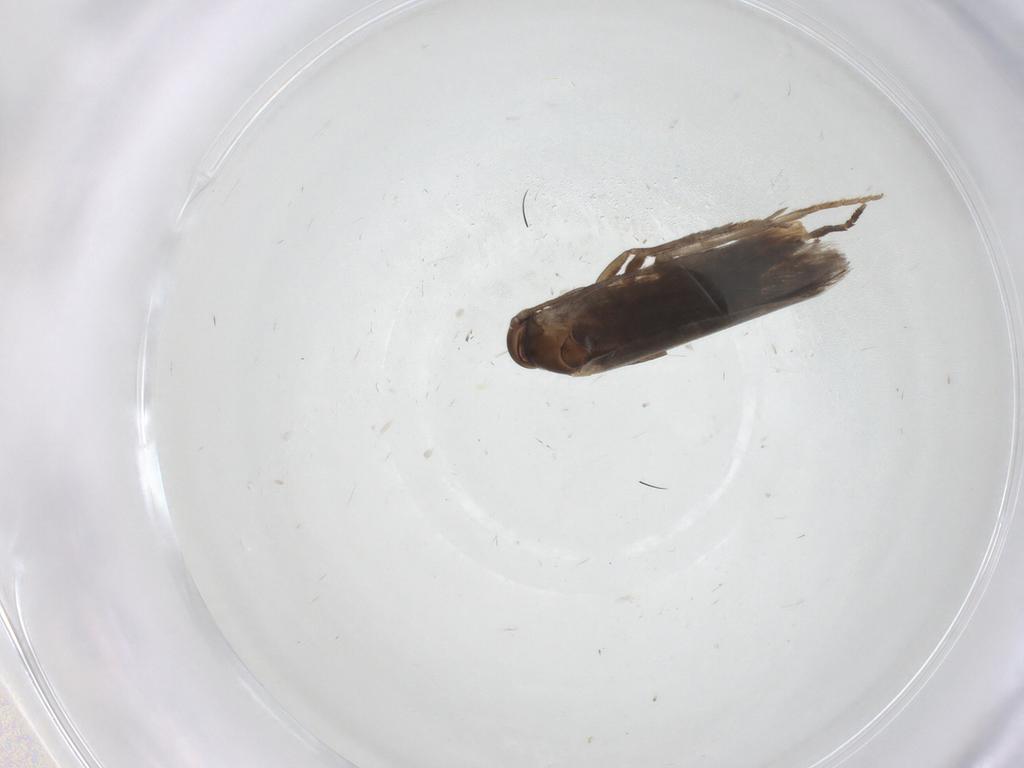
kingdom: Animalia
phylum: Arthropoda
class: Insecta
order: Lepidoptera
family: Elachistidae
